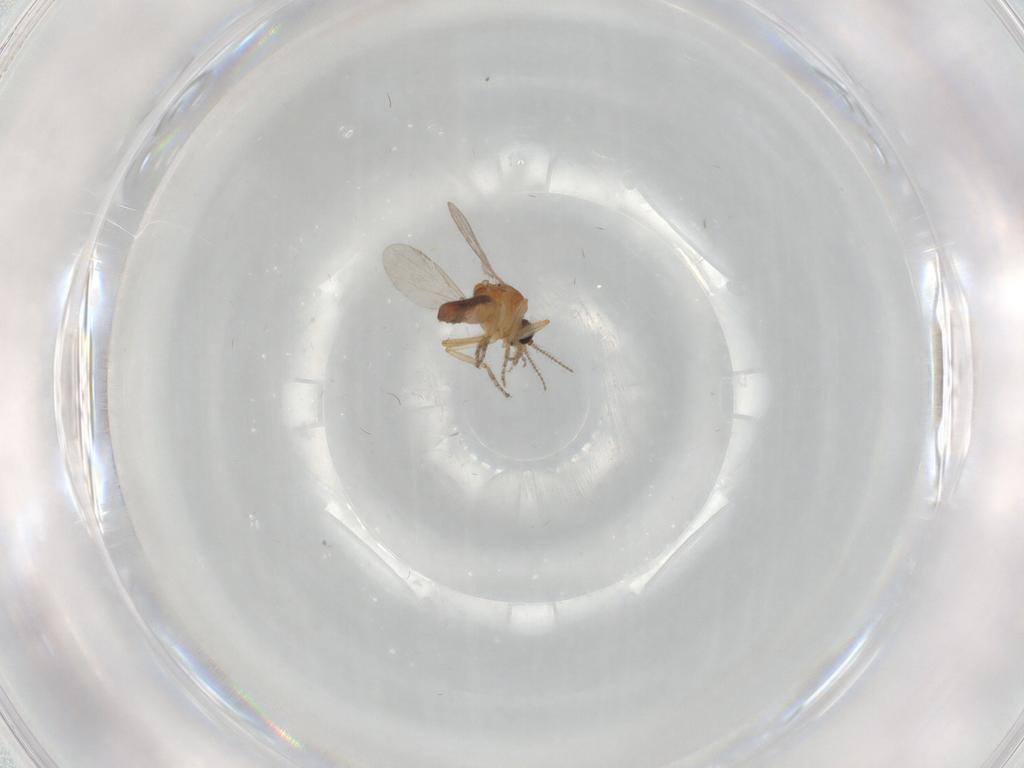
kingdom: Animalia
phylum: Arthropoda
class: Insecta
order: Diptera
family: Ceratopogonidae
